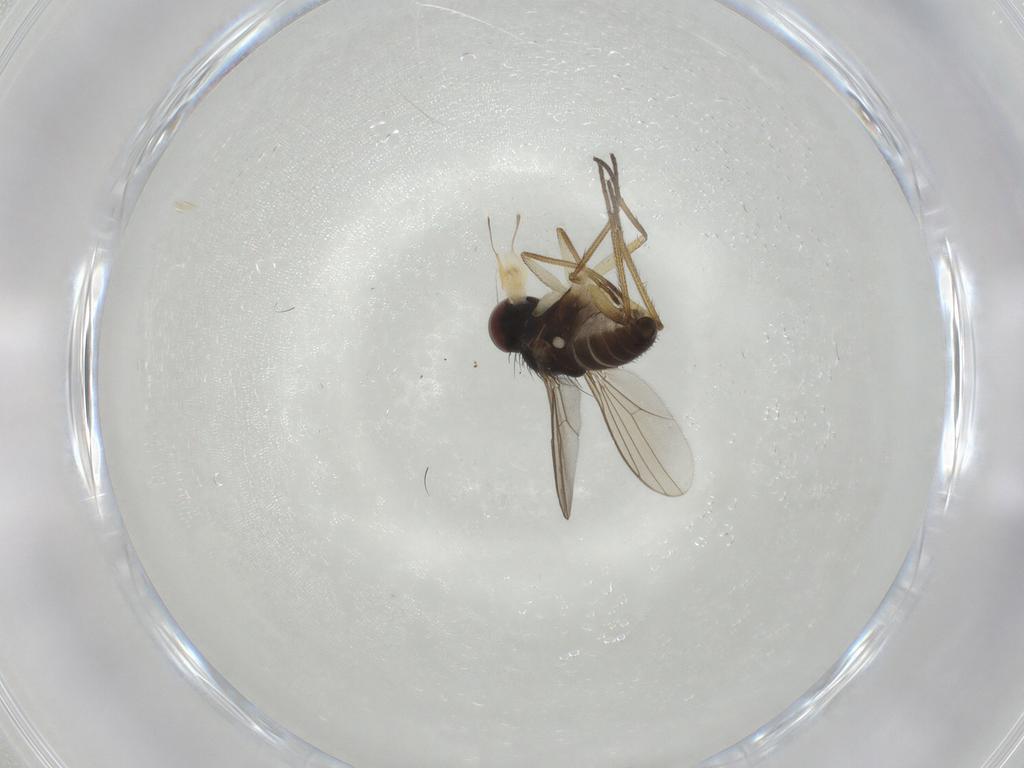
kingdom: Animalia
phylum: Arthropoda
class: Insecta
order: Diptera
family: Dolichopodidae
